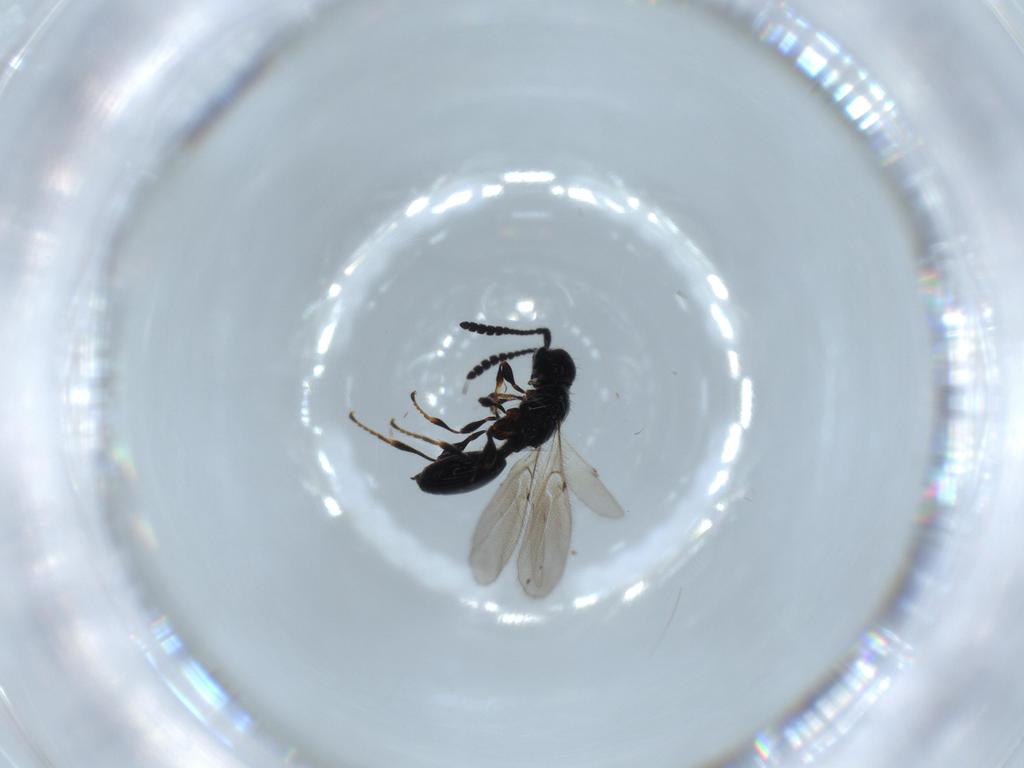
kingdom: Animalia
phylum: Arthropoda
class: Insecta
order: Hymenoptera
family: Diapriidae
